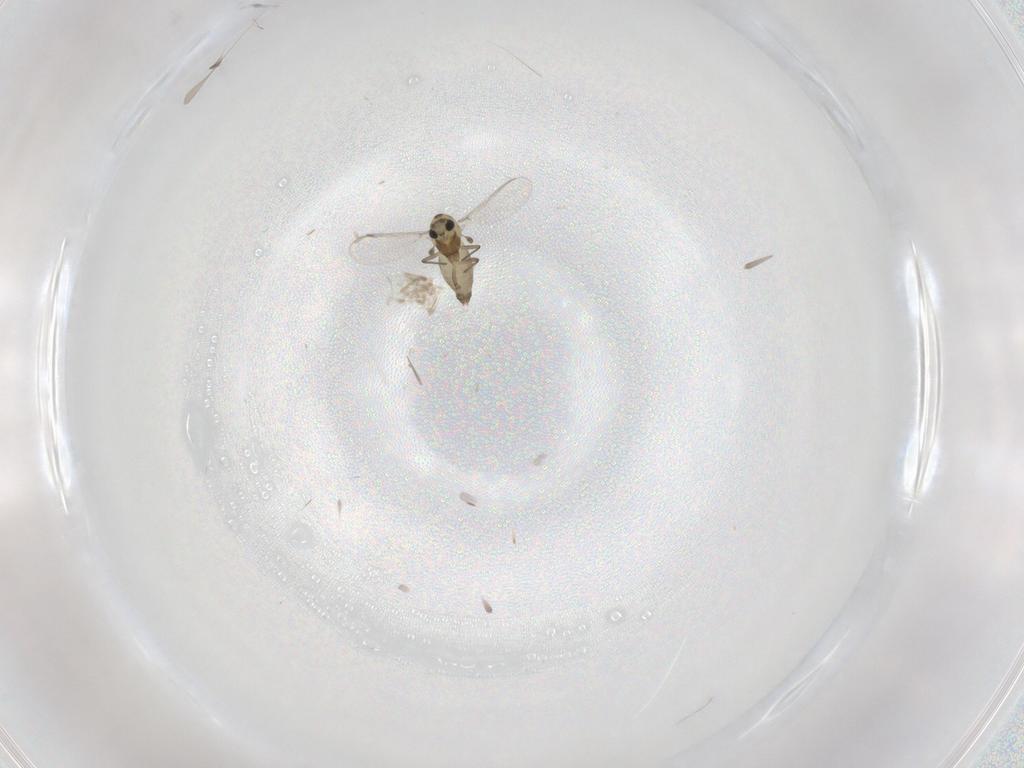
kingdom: Animalia
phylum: Arthropoda
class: Insecta
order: Diptera
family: Chironomidae
